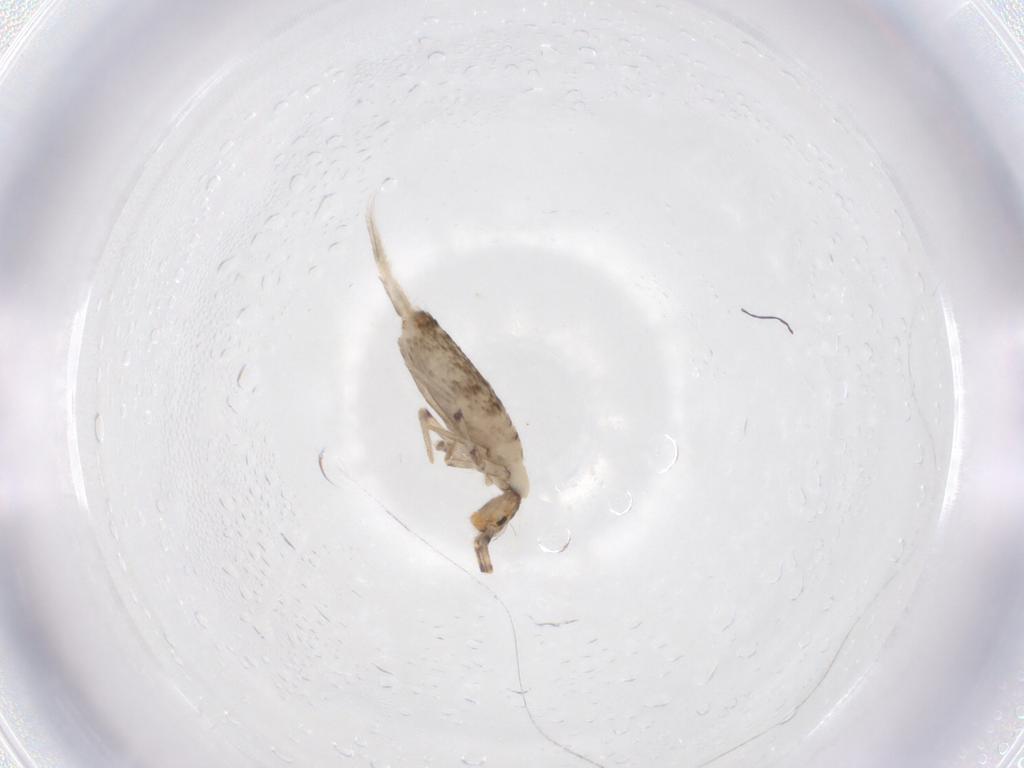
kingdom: Animalia
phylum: Arthropoda
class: Collembola
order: Entomobryomorpha
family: Entomobryidae
